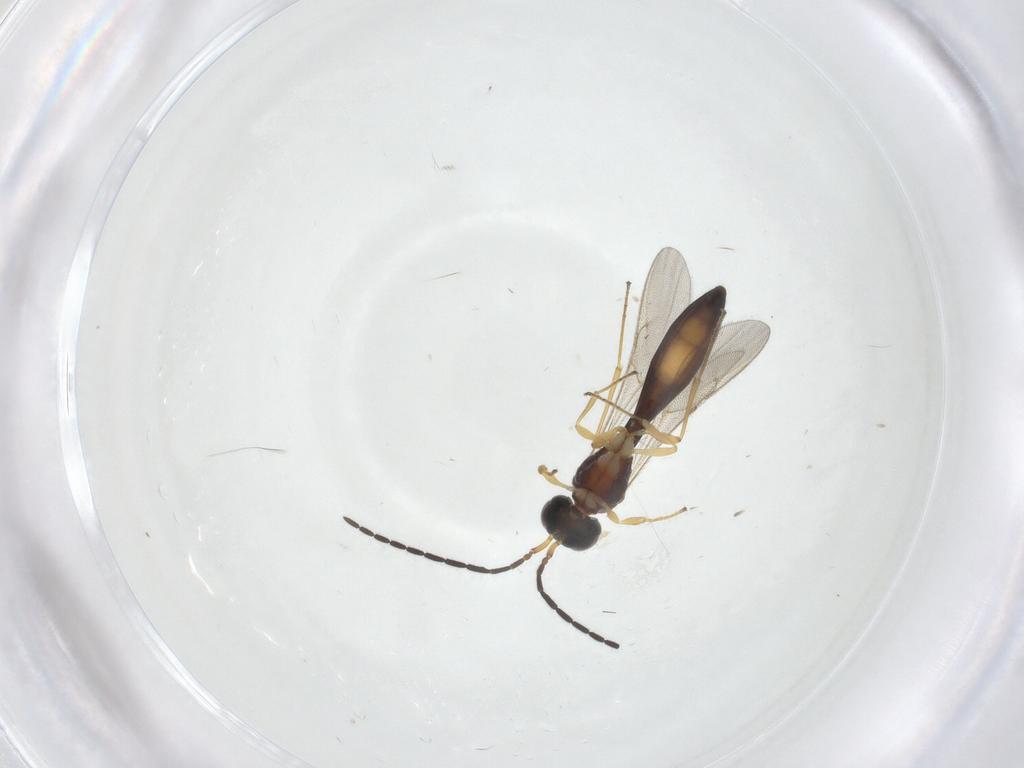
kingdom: Animalia
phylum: Arthropoda
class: Insecta
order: Hymenoptera
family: Scelionidae
